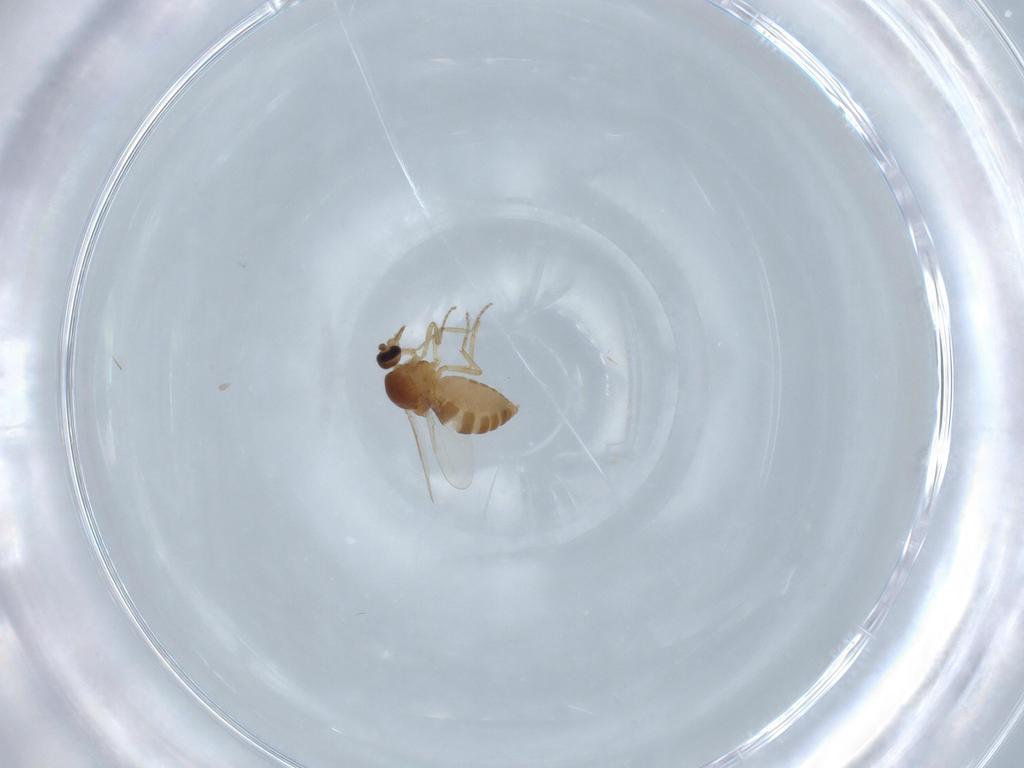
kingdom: Animalia
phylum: Arthropoda
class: Insecta
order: Diptera
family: Ceratopogonidae
